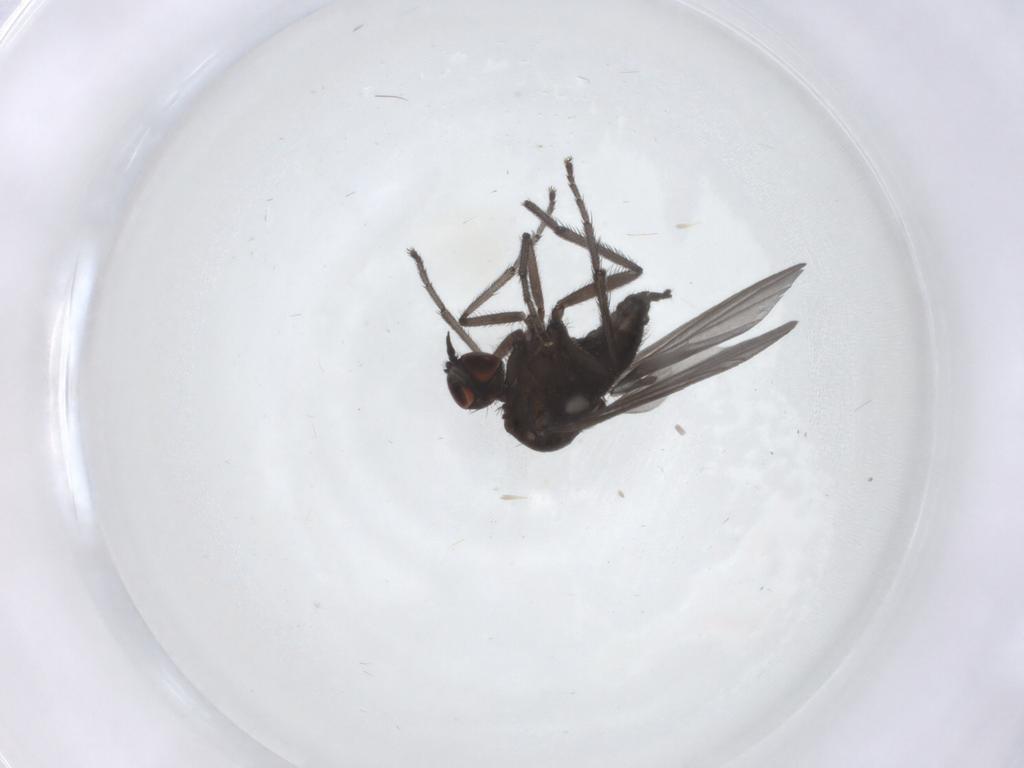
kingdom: Animalia
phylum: Arthropoda
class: Insecta
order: Diptera
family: Empididae
